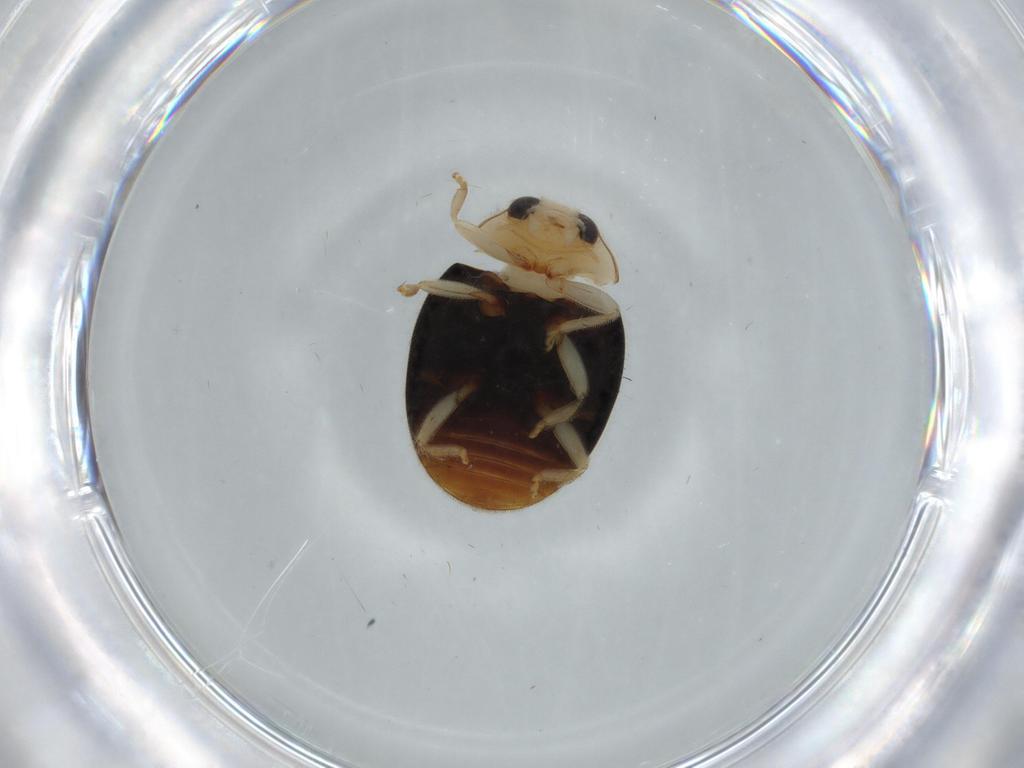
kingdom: Animalia
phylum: Arthropoda
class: Insecta
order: Coleoptera
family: Coccinellidae
